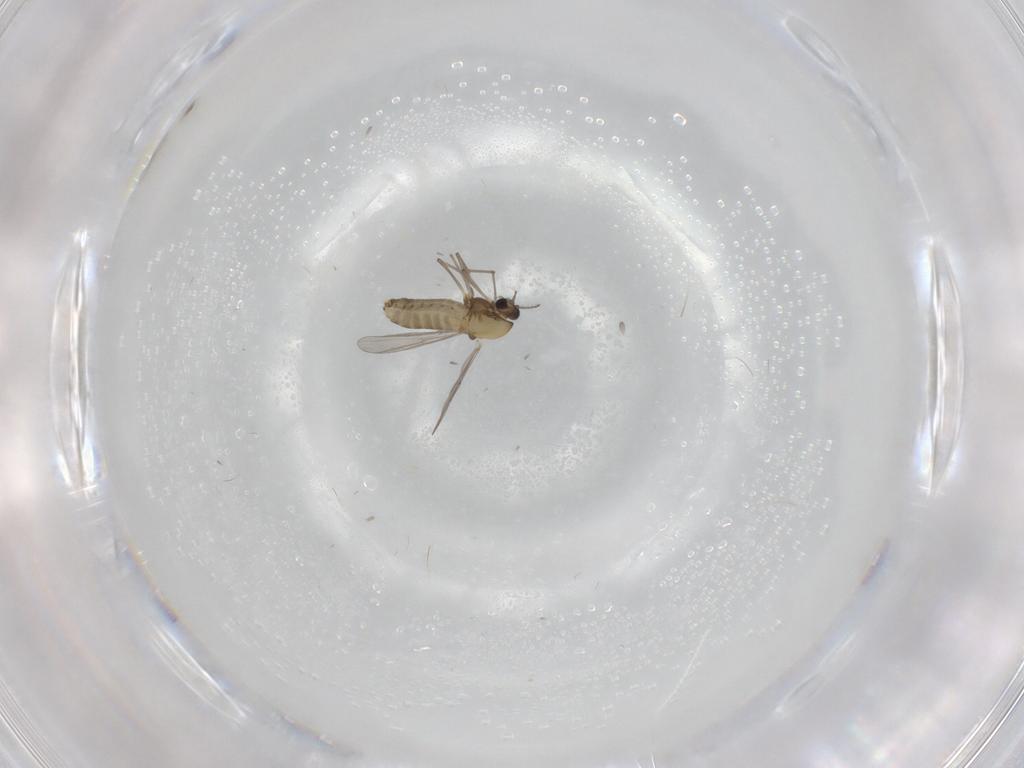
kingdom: Animalia
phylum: Arthropoda
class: Insecta
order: Diptera
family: Chironomidae
